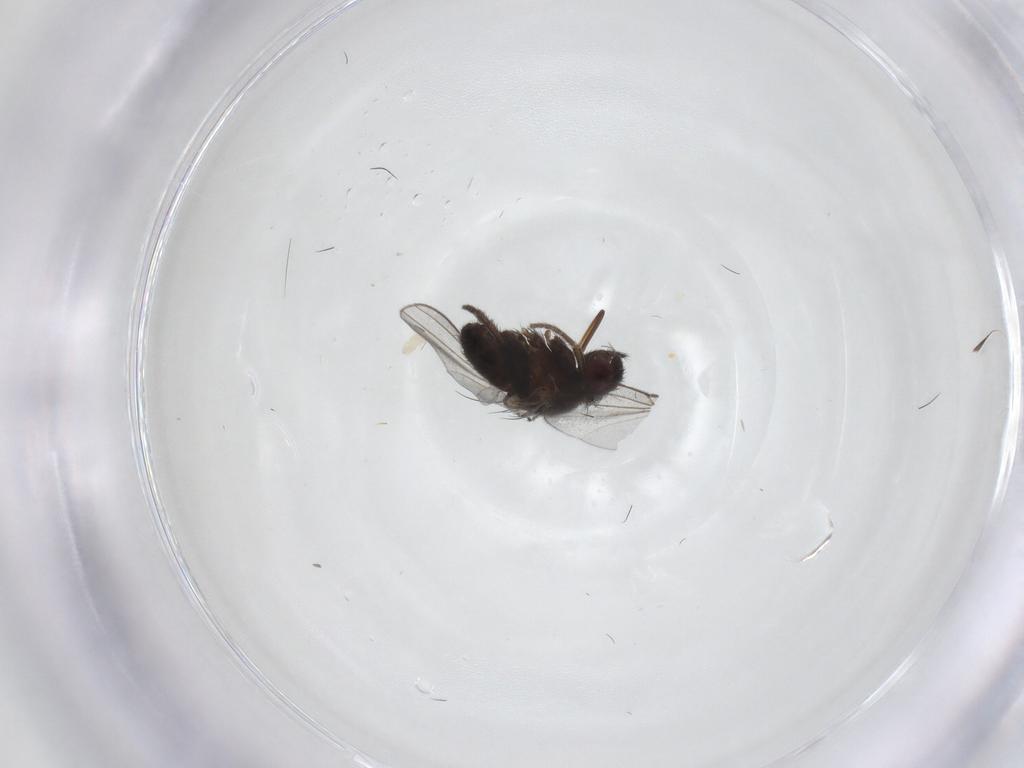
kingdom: Animalia
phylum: Arthropoda
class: Insecta
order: Diptera
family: Milichiidae
